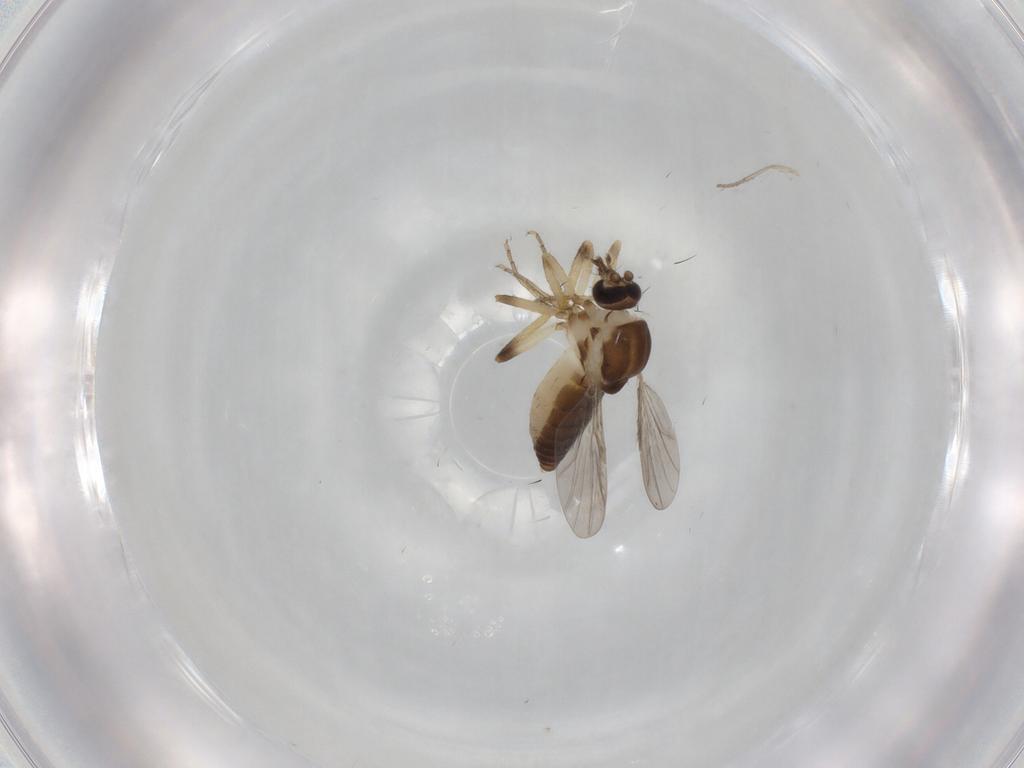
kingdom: Animalia
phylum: Arthropoda
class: Insecta
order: Diptera
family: Ceratopogonidae
